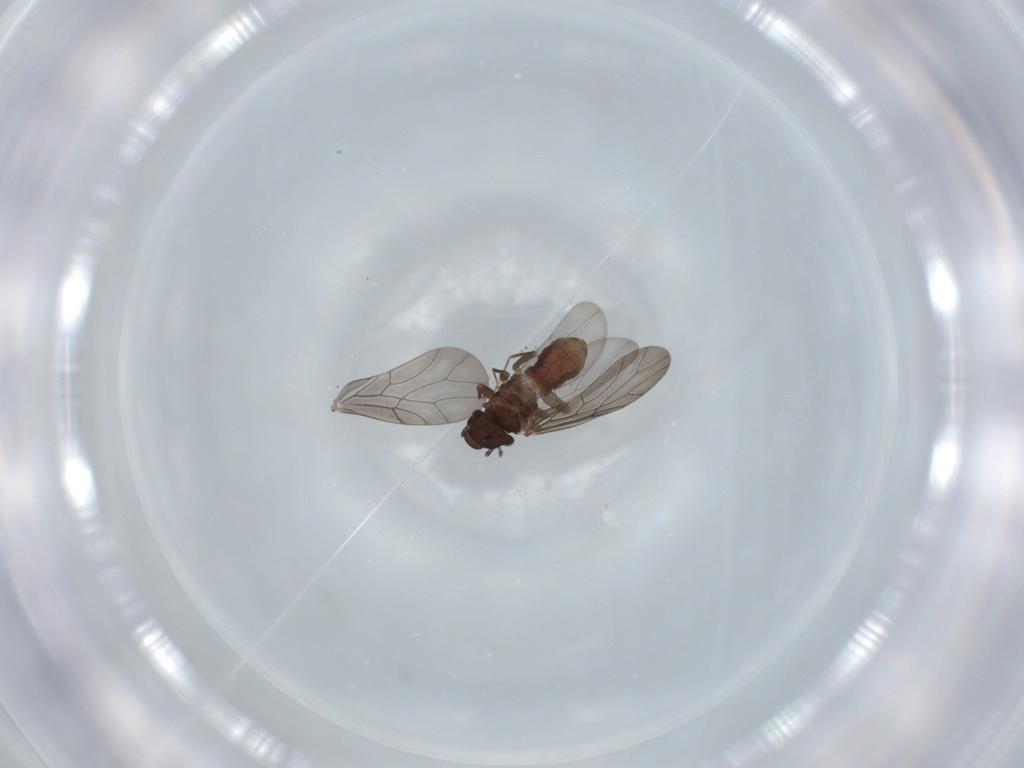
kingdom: Animalia
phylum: Arthropoda
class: Insecta
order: Psocodea
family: Lepidopsocidae
